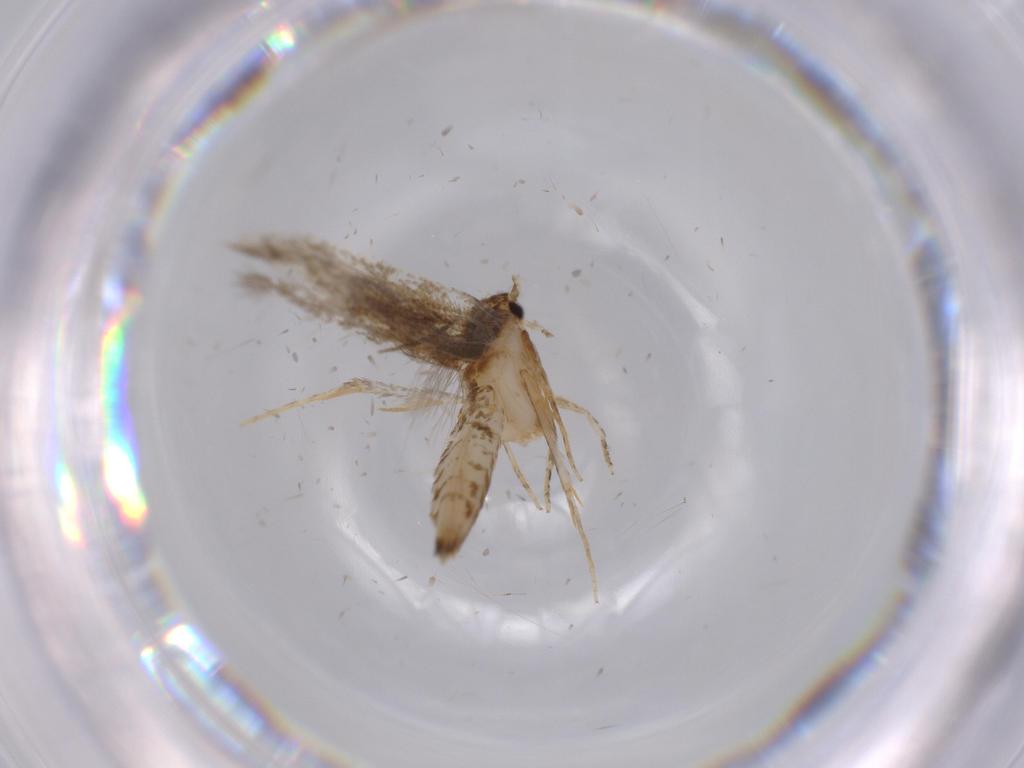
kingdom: Animalia
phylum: Arthropoda
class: Insecta
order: Lepidoptera
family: Tineidae
